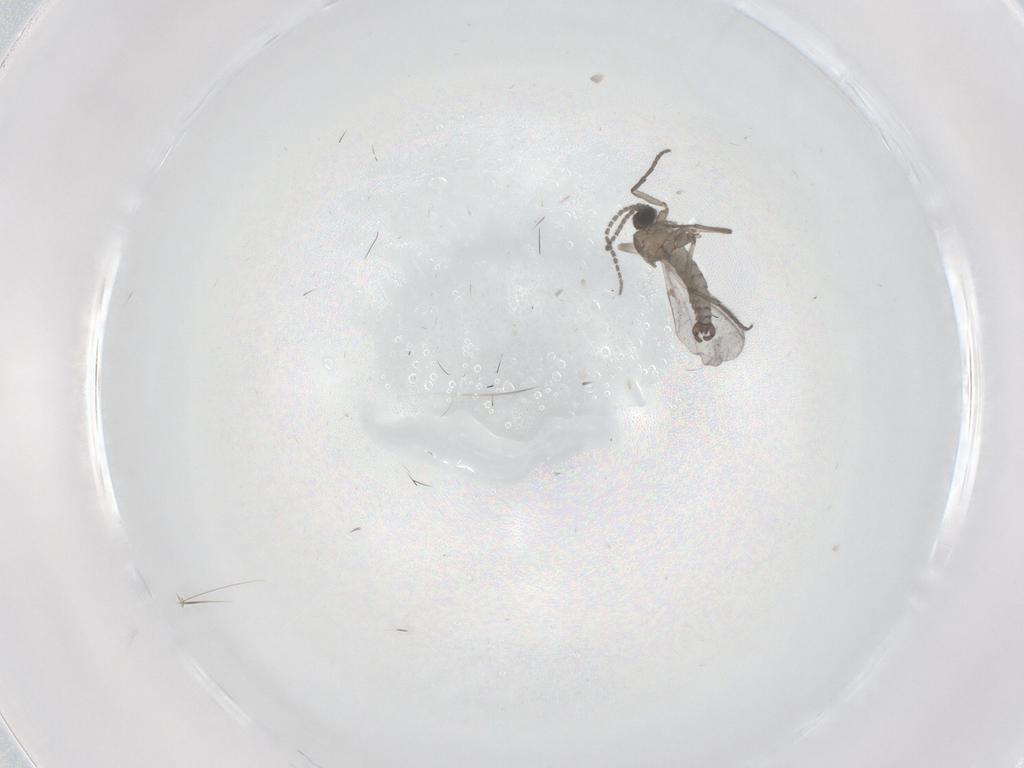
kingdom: Animalia
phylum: Arthropoda
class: Insecta
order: Diptera
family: Sciaridae
